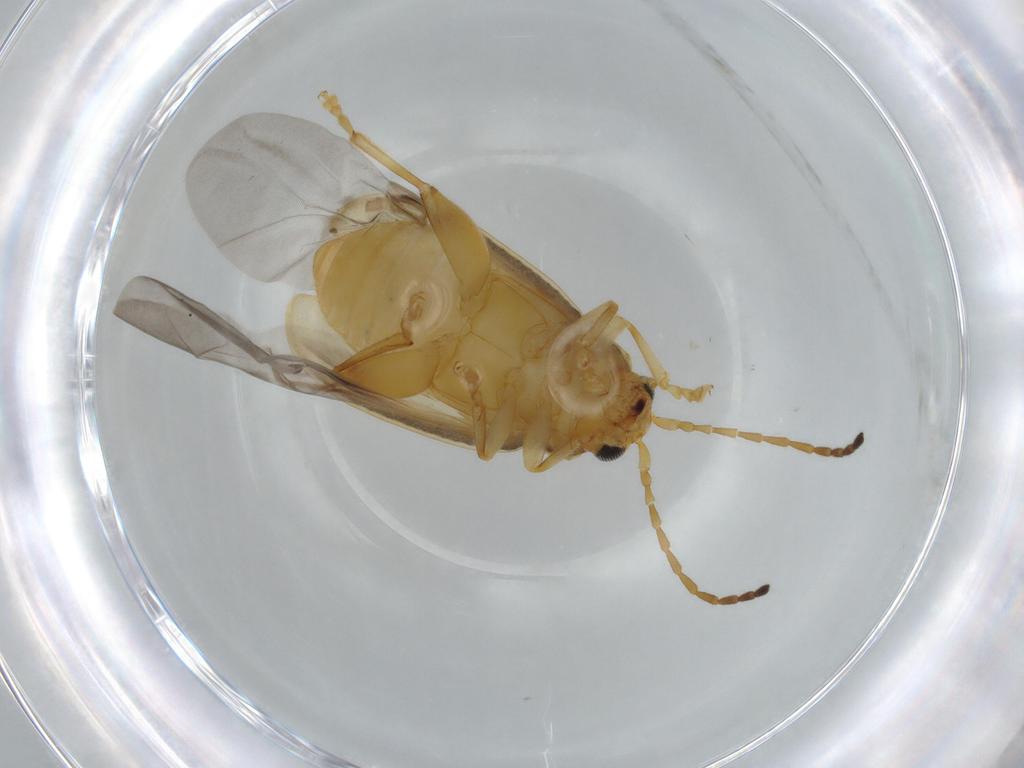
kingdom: Animalia
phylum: Arthropoda
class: Insecta
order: Coleoptera
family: Chrysomelidae
